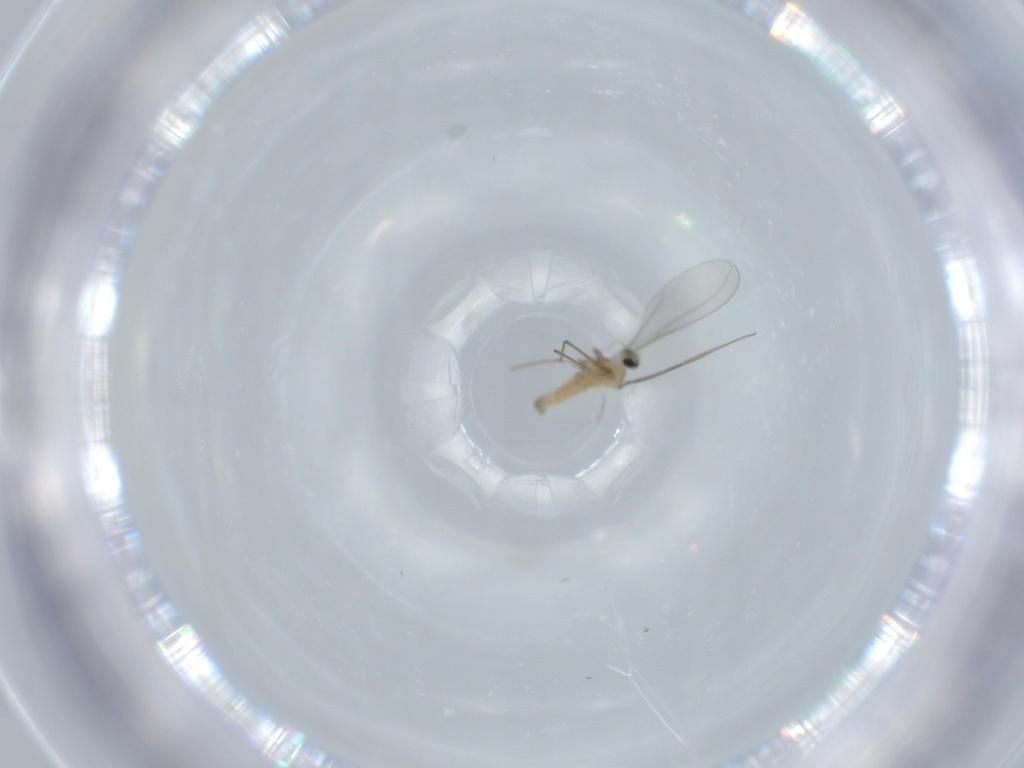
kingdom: Animalia
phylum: Arthropoda
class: Insecta
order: Diptera
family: Cecidomyiidae
